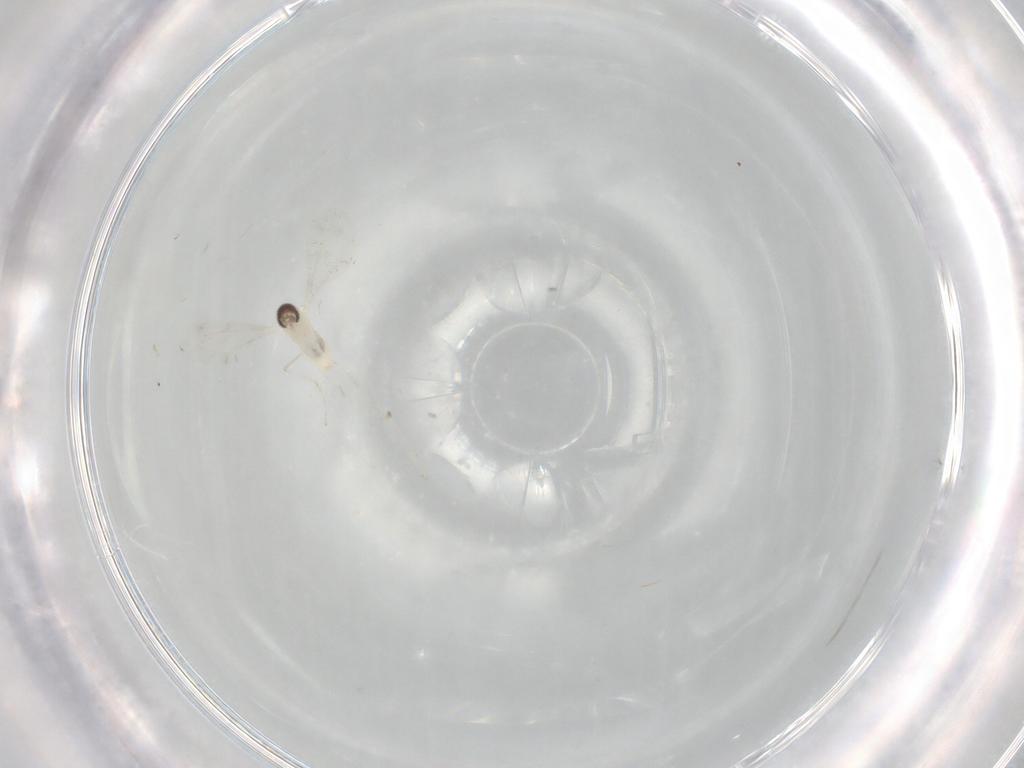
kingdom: Animalia
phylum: Arthropoda
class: Insecta
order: Diptera
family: Cecidomyiidae
